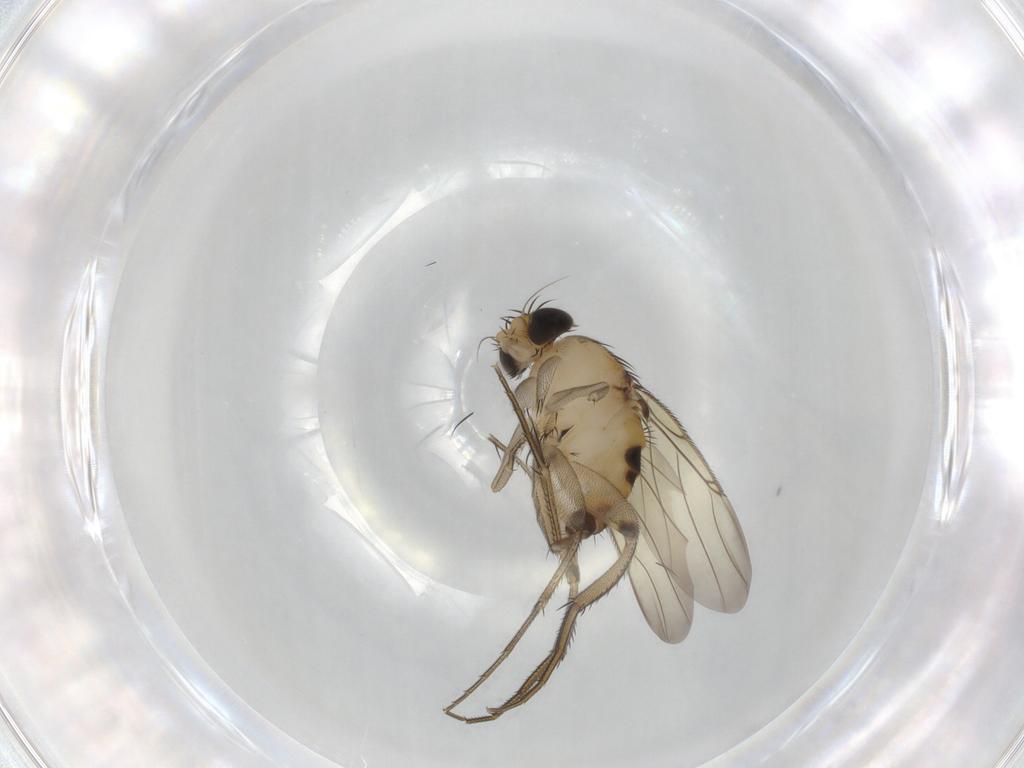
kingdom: Animalia
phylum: Arthropoda
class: Insecta
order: Diptera
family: Phoridae
